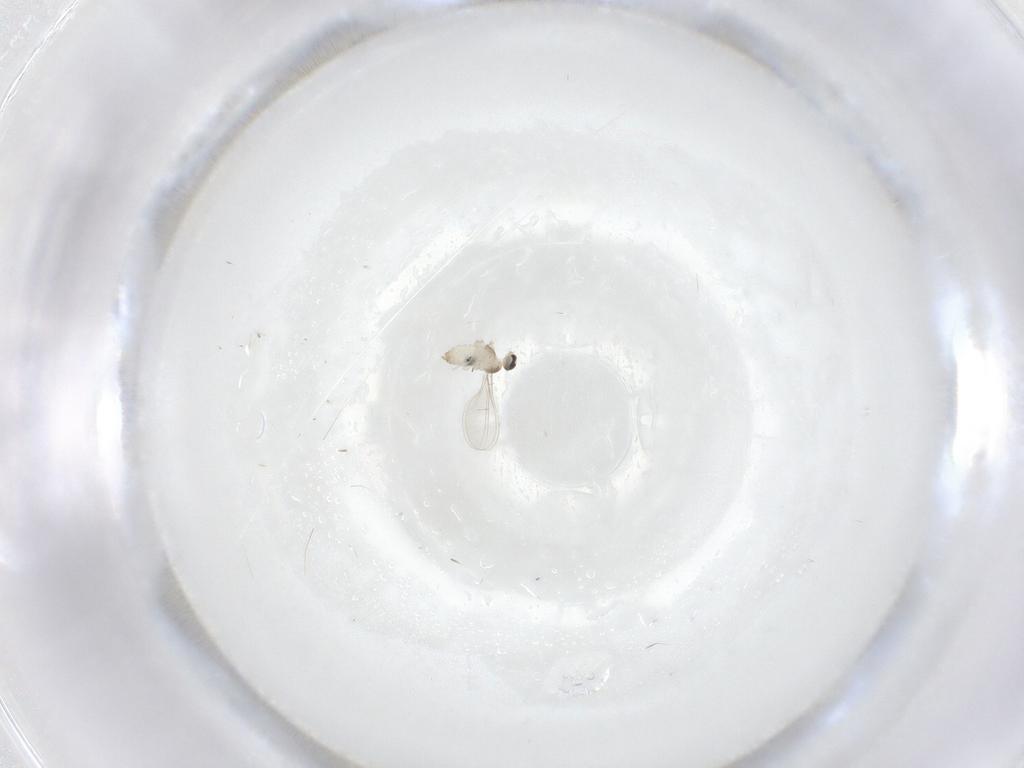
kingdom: Animalia
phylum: Arthropoda
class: Insecta
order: Diptera
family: Cecidomyiidae
